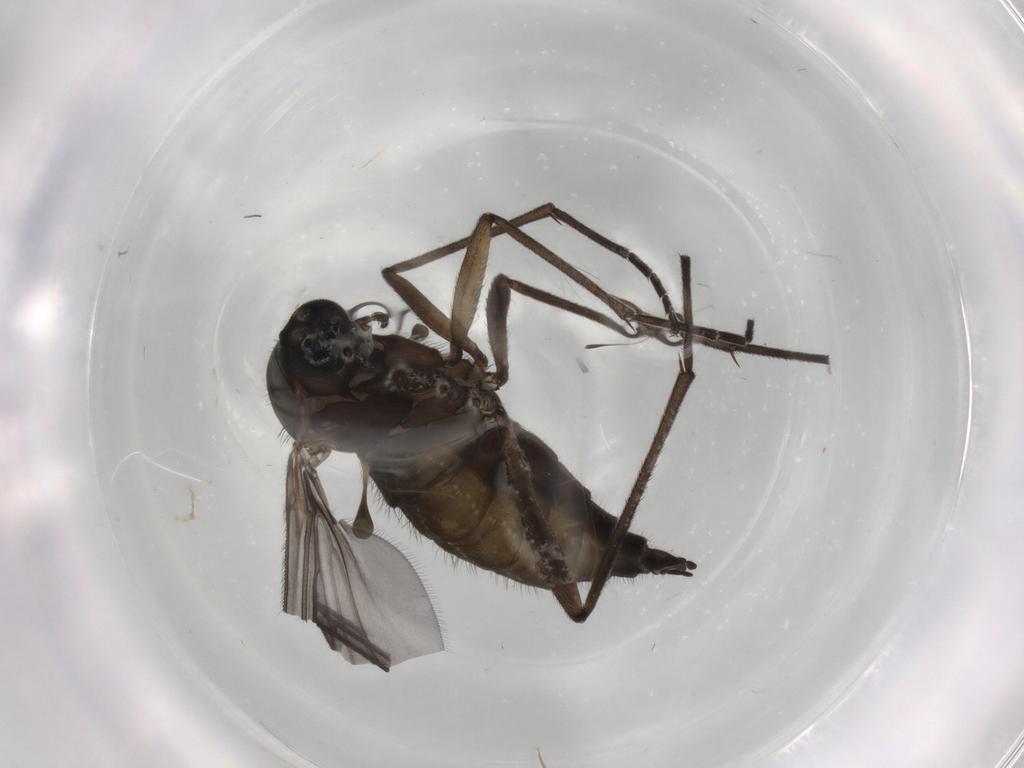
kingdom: Animalia
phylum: Arthropoda
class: Insecta
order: Diptera
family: Sciaridae
